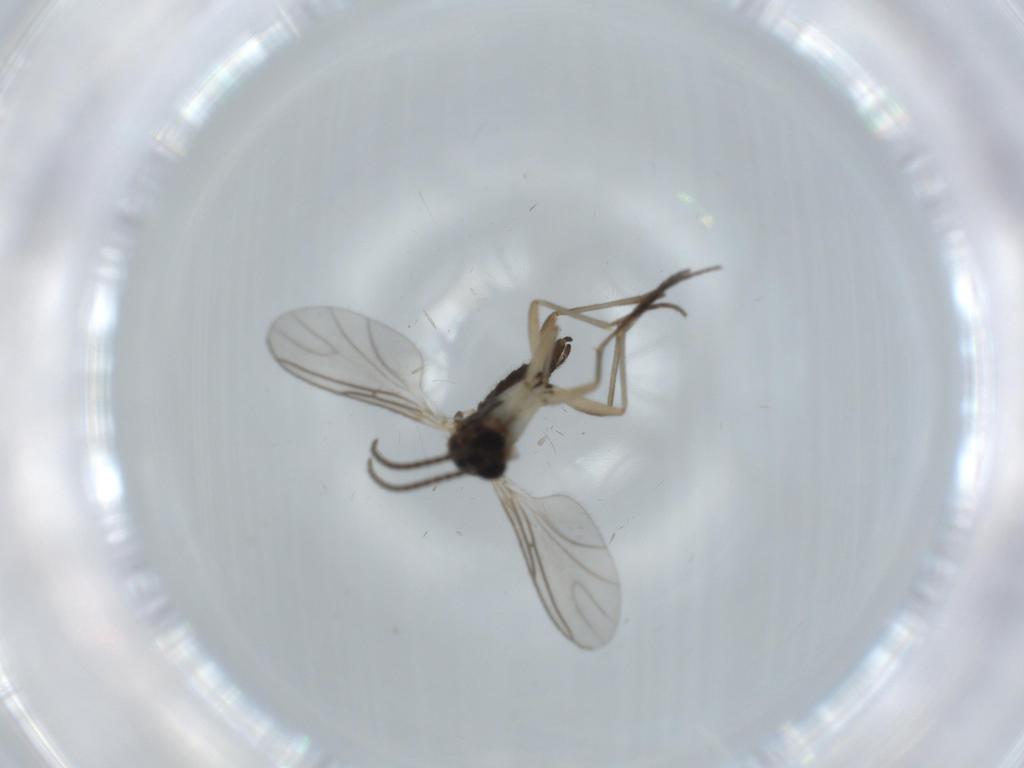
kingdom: Animalia
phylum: Arthropoda
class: Insecta
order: Diptera
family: Sciaridae
